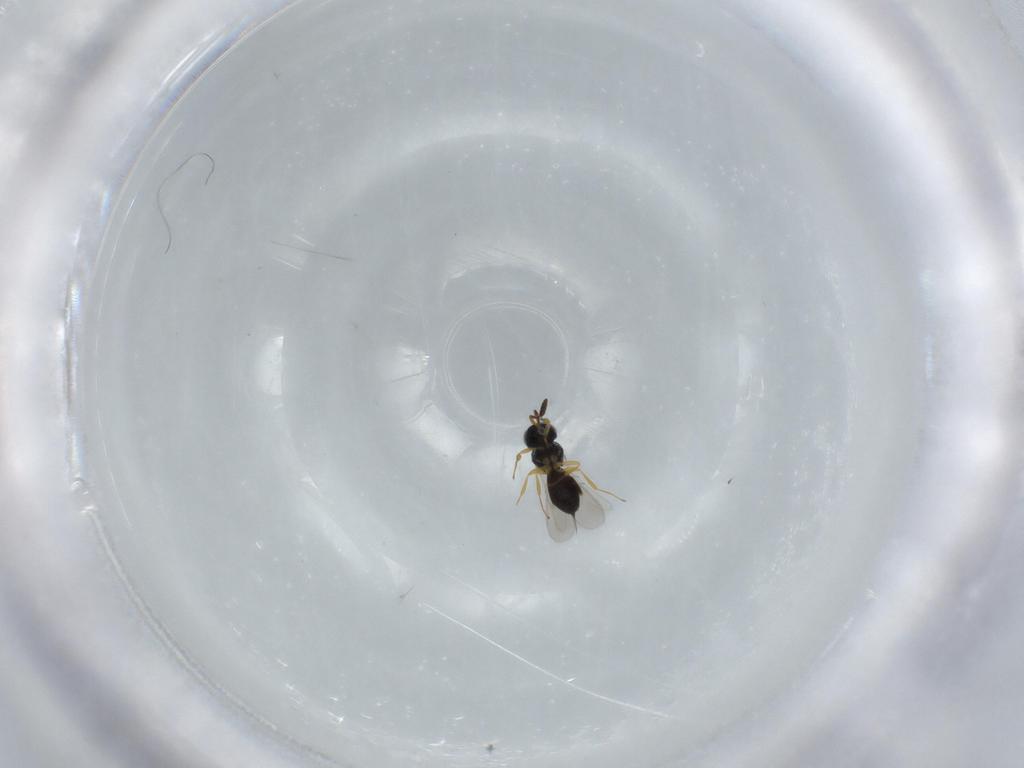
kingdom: Animalia
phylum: Arthropoda
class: Insecta
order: Hymenoptera
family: Scelionidae
